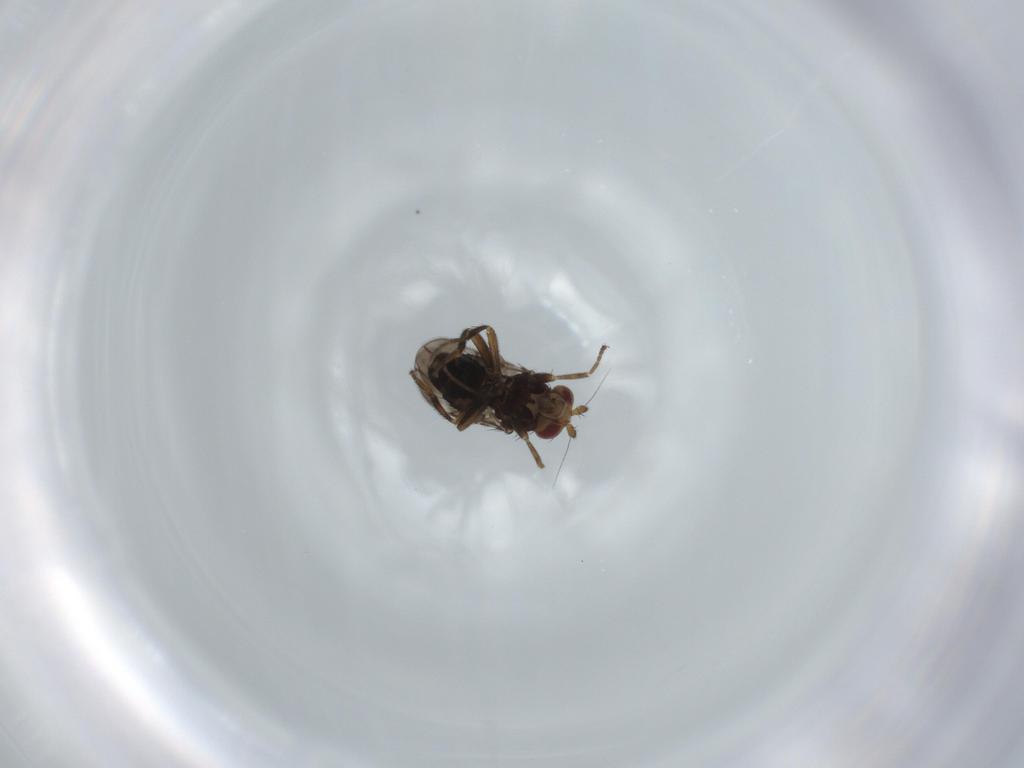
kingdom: Animalia
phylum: Arthropoda
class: Insecta
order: Diptera
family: Sphaeroceridae
